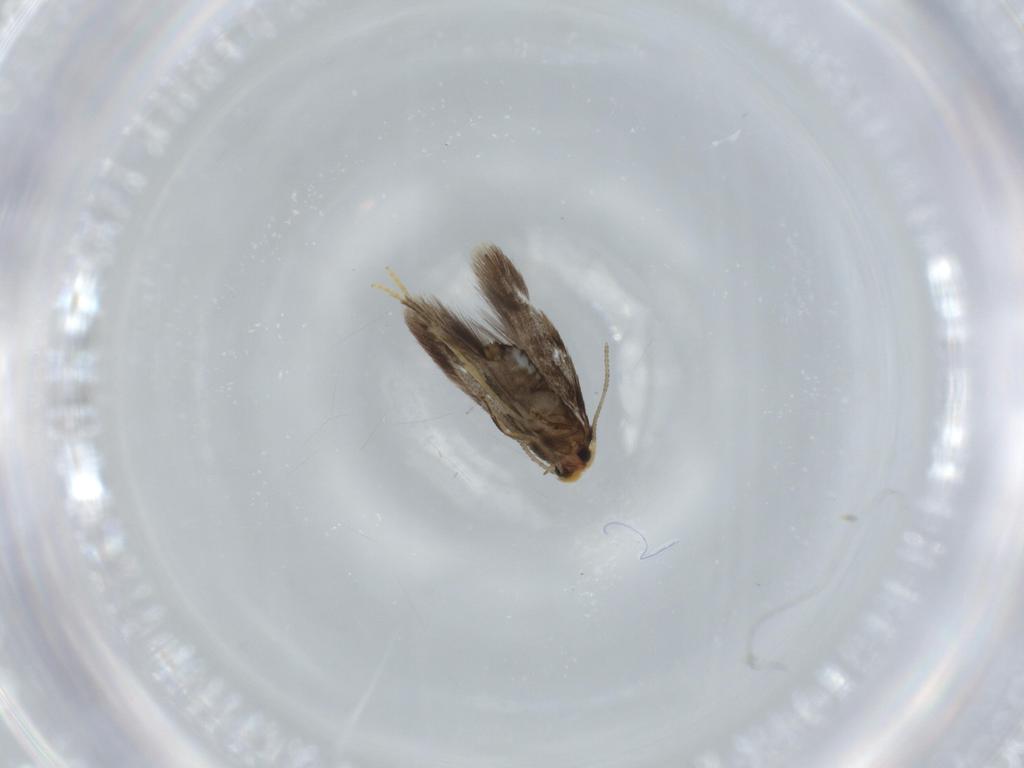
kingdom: Animalia
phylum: Arthropoda
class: Insecta
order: Lepidoptera
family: Nepticulidae
